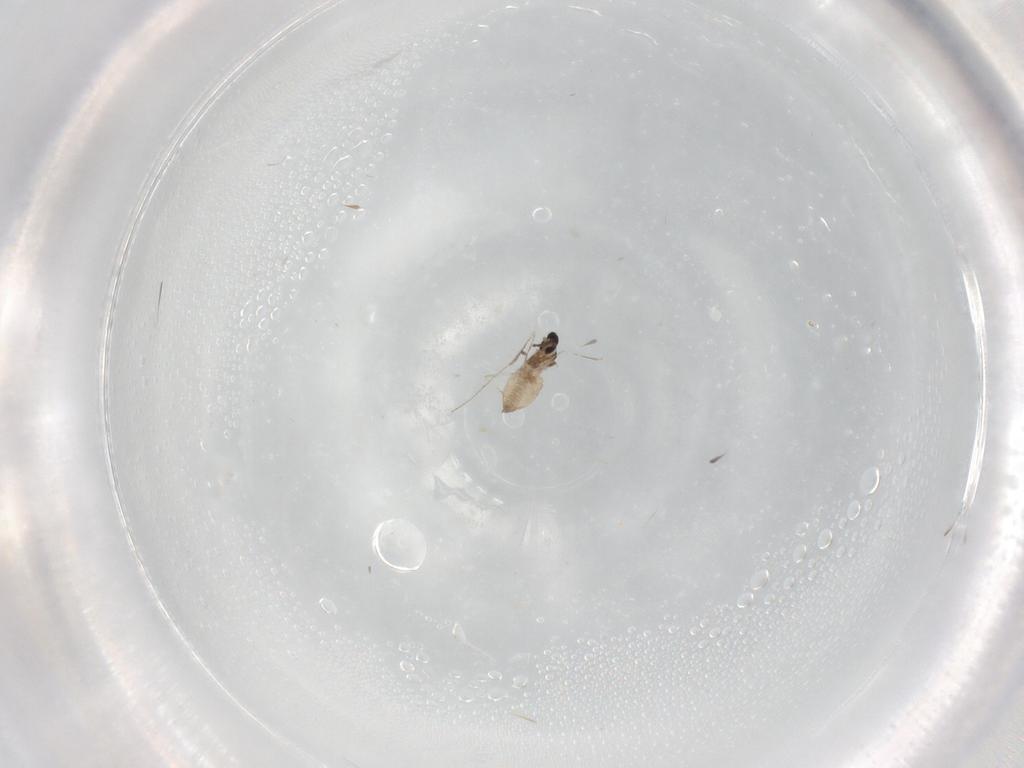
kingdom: Animalia
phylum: Arthropoda
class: Insecta
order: Diptera
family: Cecidomyiidae
